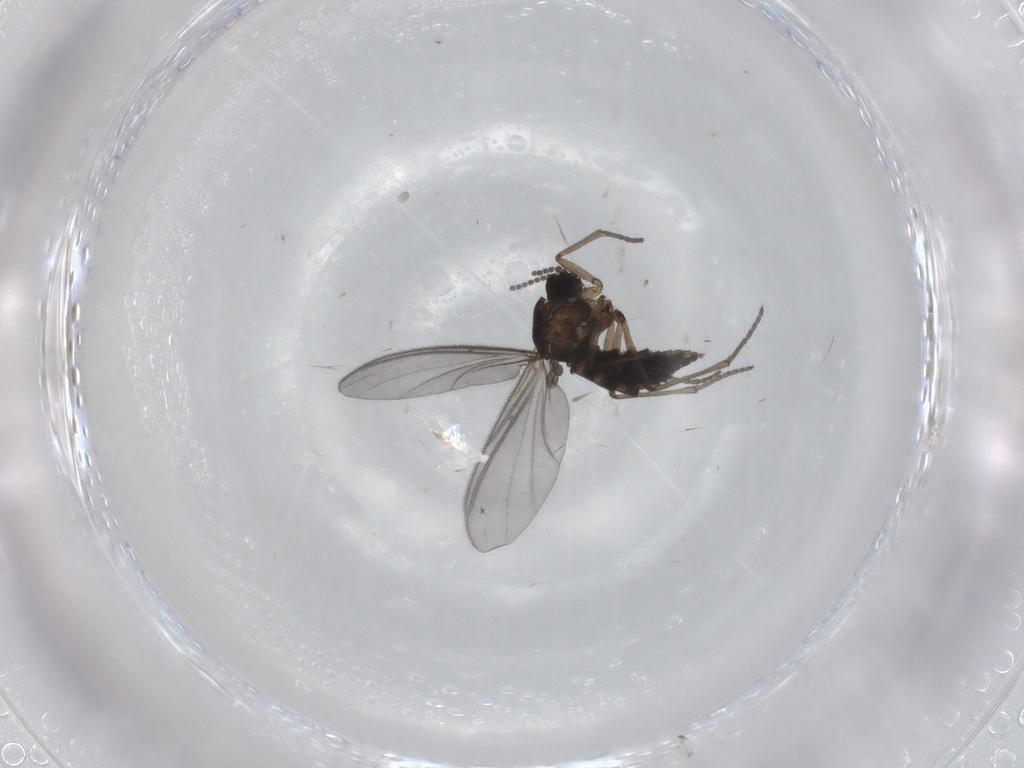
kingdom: Animalia
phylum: Arthropoda
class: Insecta
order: Diptera
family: Sciaridae
